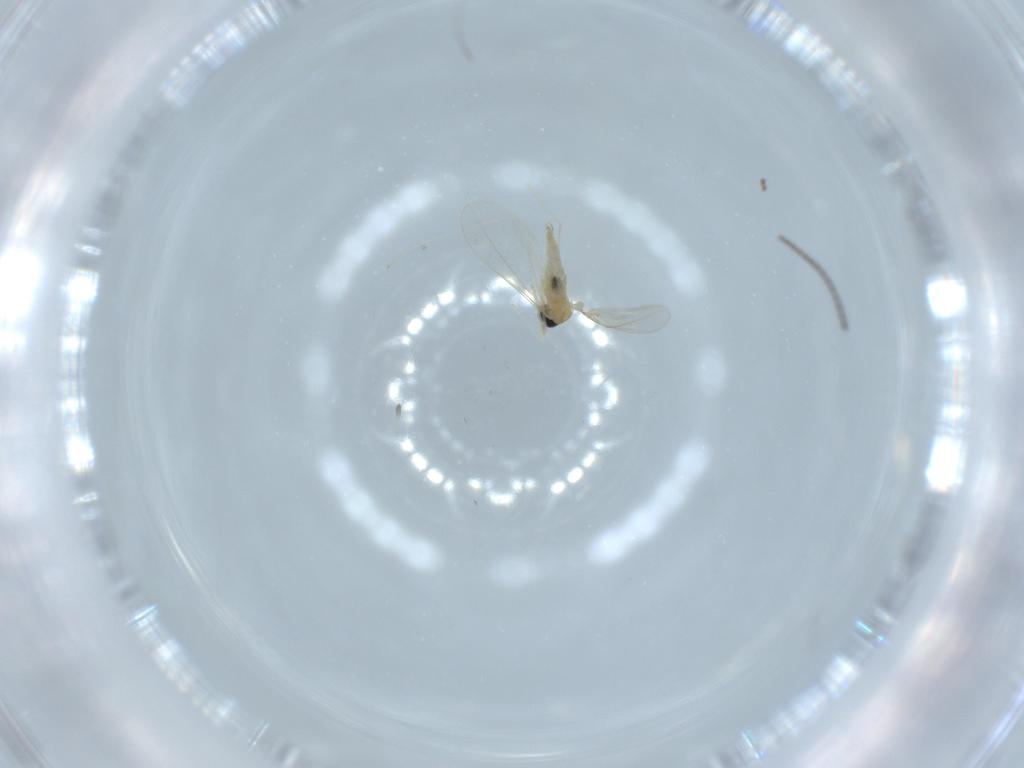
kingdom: Animalia
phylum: Arthropoda
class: Insecta
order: Diptera
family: Cecidomyiidae
